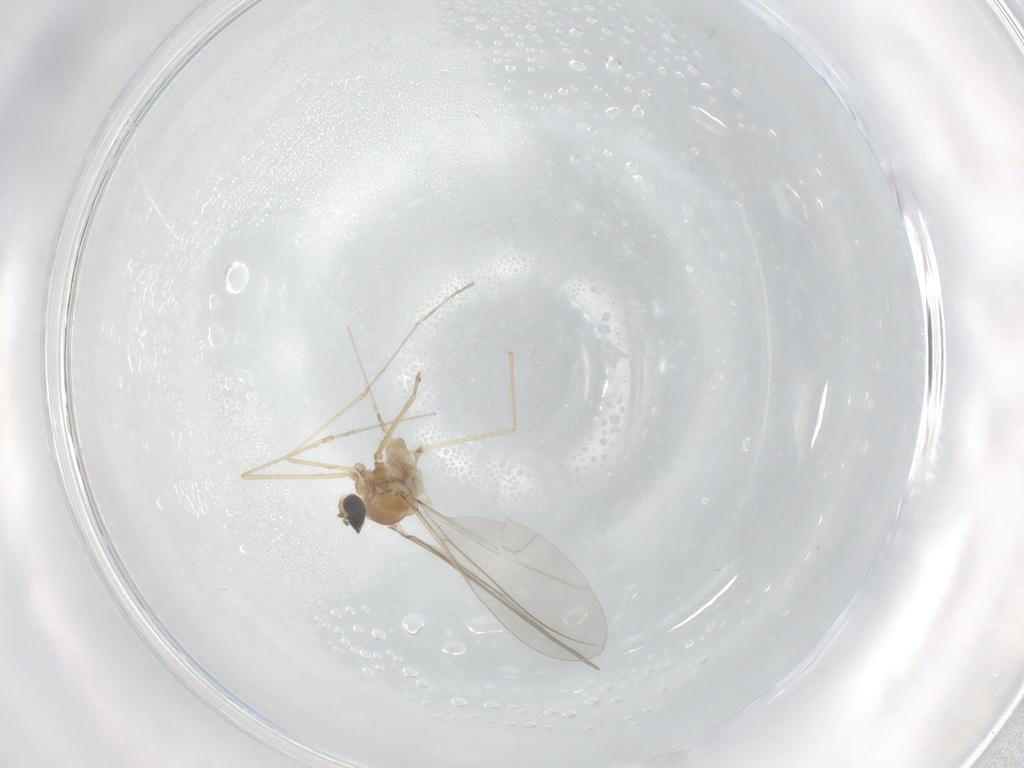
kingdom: Animalia
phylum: Arthropoda
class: Insecta
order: Diptera
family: Cecidomyiidae
